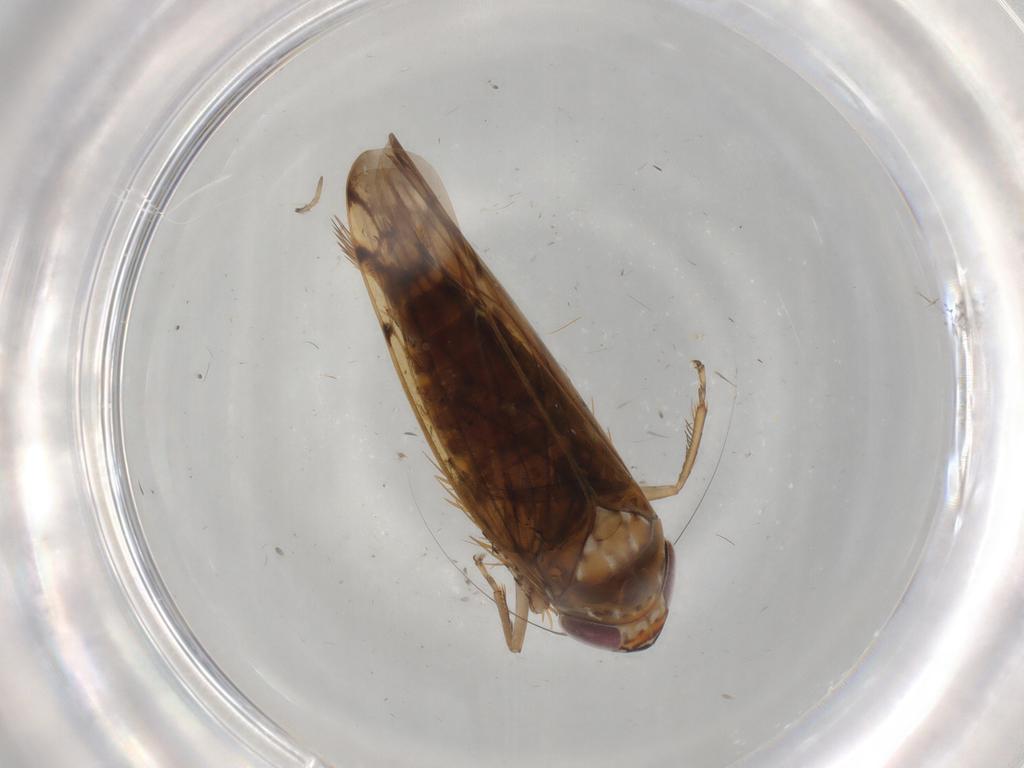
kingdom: Animalia
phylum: Arthropoda
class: Insecta
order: Hemiptera
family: Cicadellidae
